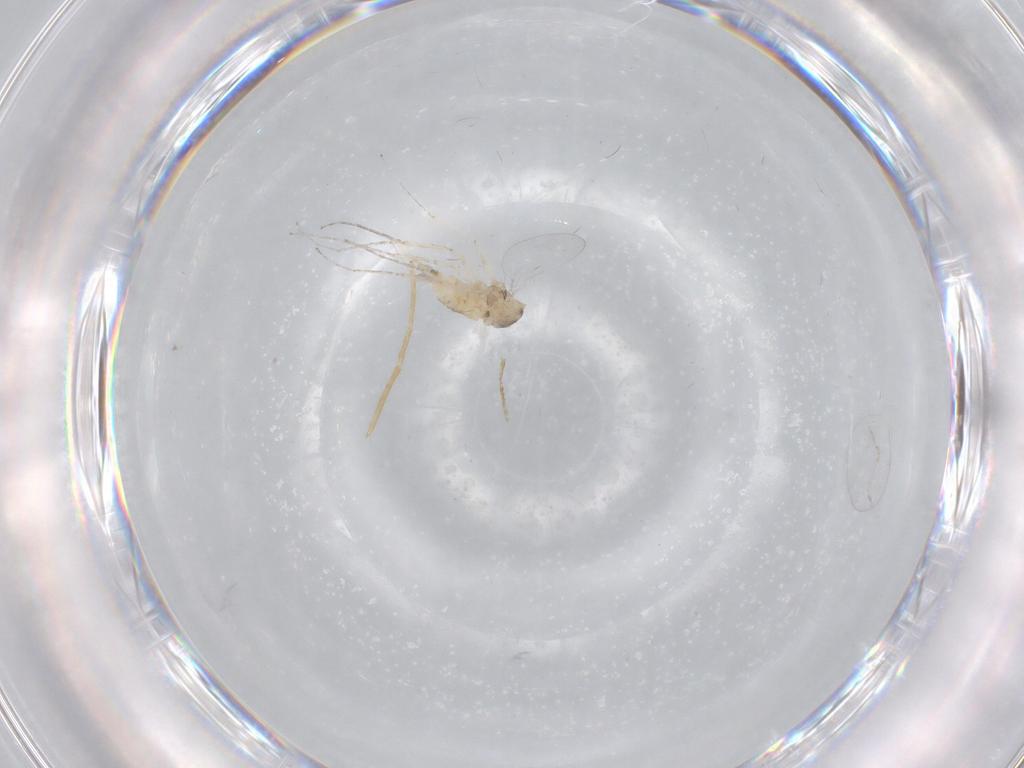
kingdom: Animalia
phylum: Arthropoda
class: Insecta
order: Diptera
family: Cecidomyiidae
